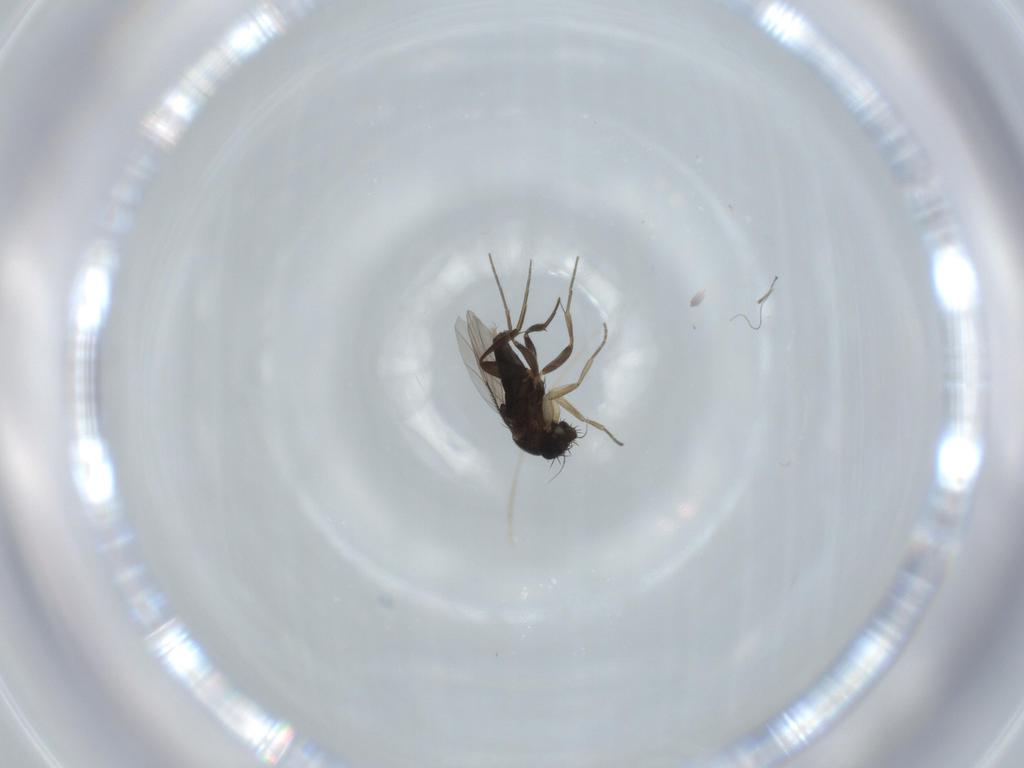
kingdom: Animalia
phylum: Arthropoda
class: Insecta
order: Diptera
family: Phoridae
